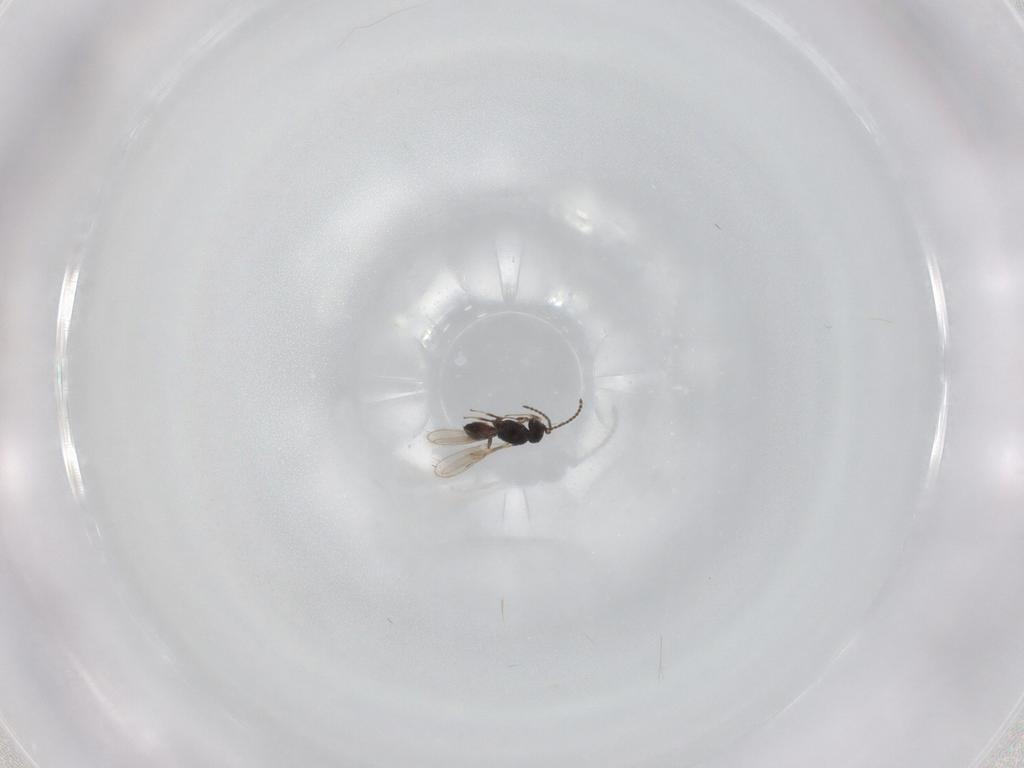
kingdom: Animalia
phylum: Arthropoda
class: Insecta
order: Hymenoptera
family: Scelionidae
